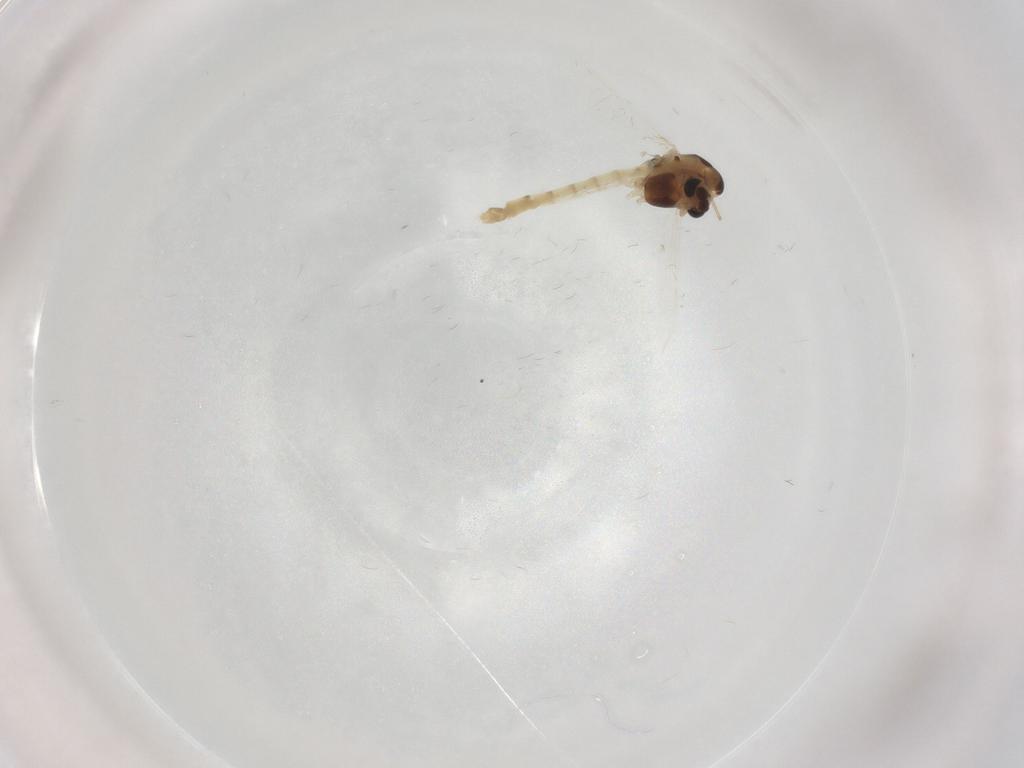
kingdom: Animalia
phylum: Arthropoda
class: Insecta
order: Diptera
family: Chironomidae
